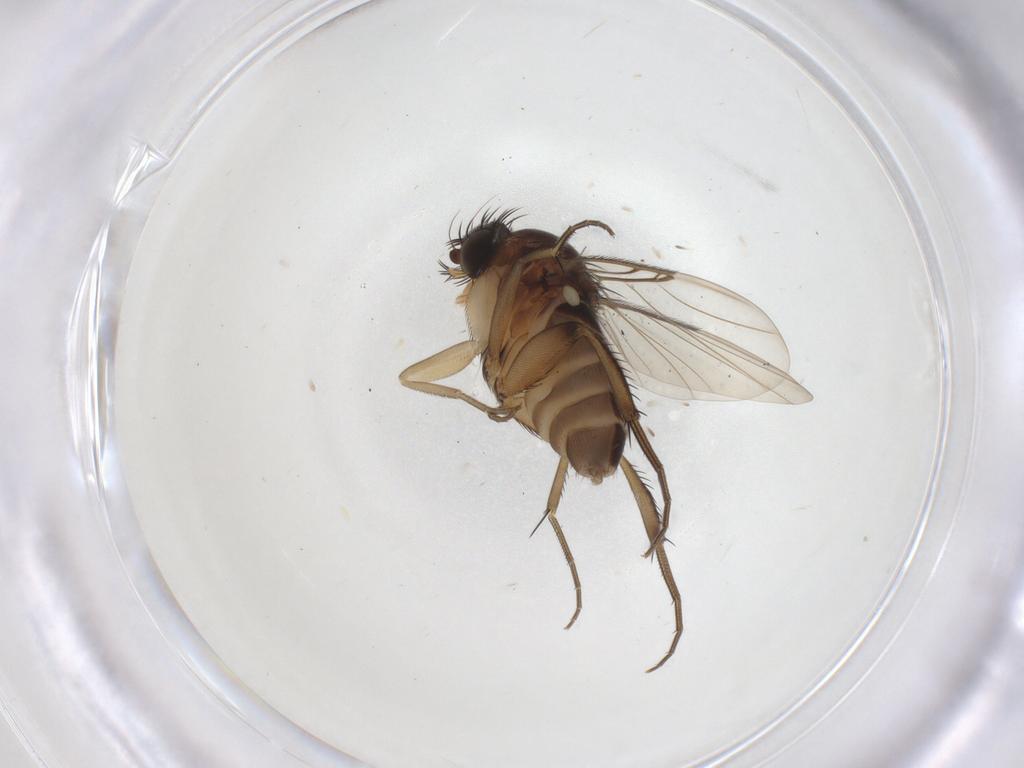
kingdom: Animalia
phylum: Arthropoda
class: Insecta
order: Diptera
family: Phoridae
